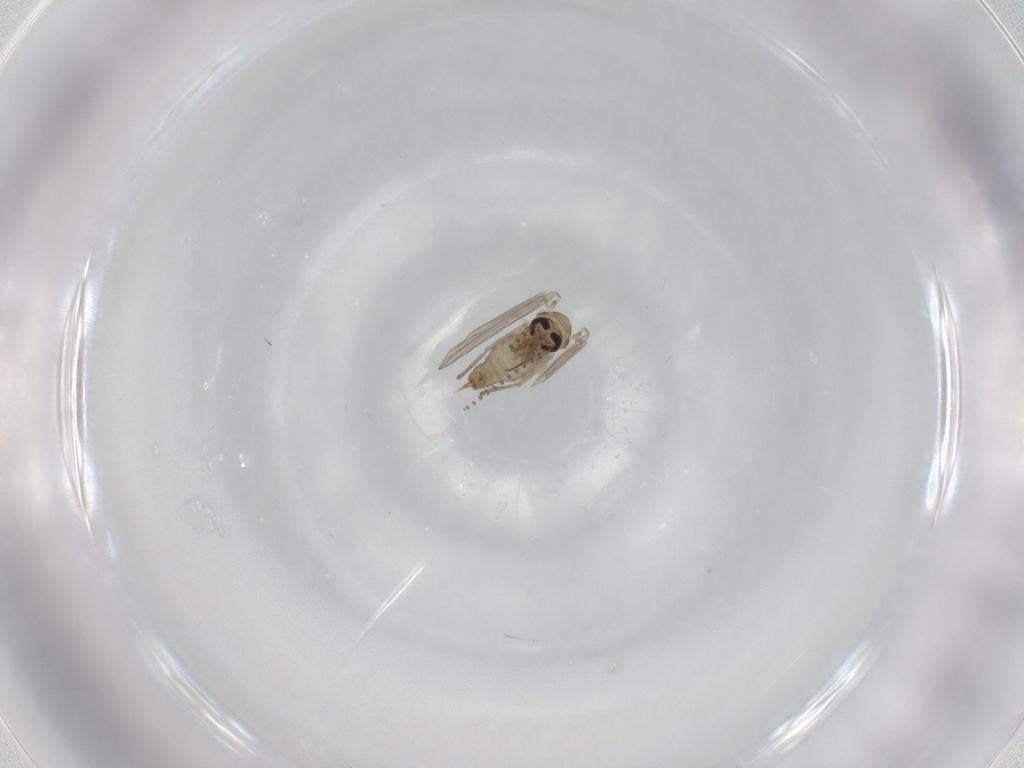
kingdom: Animalia
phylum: Arthropoda
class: Insecta
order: Diptera
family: Psychodidae
